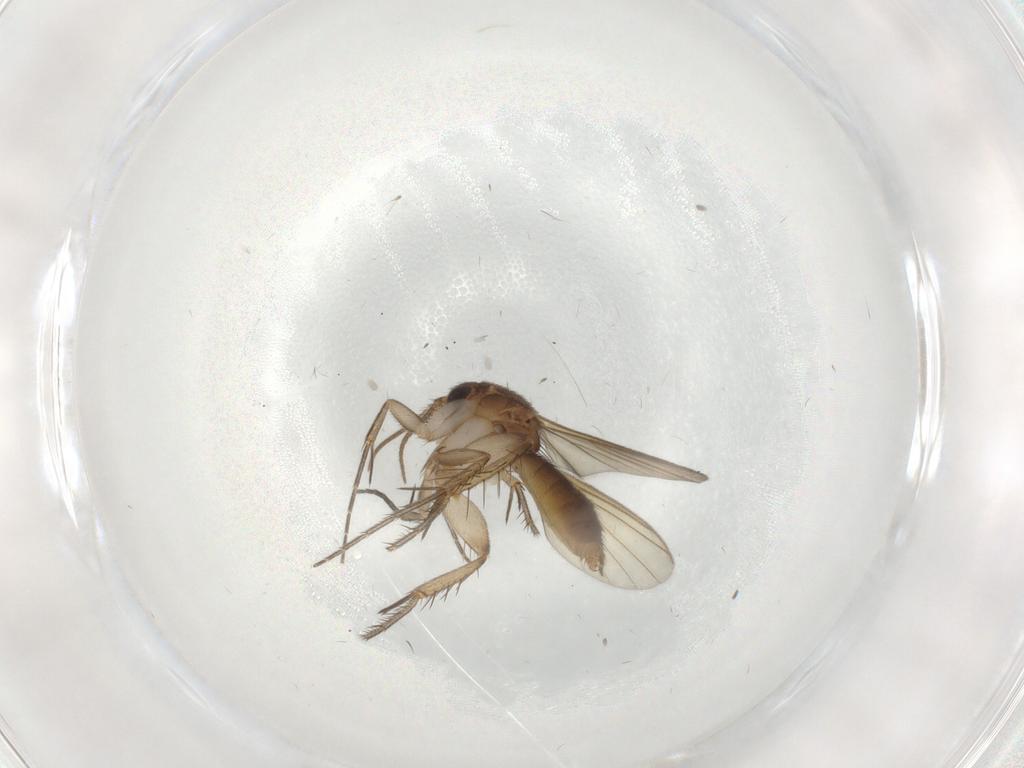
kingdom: Animalia
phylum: Arthropoda
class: Insecta
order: Diptera
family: Mycetophilidae
